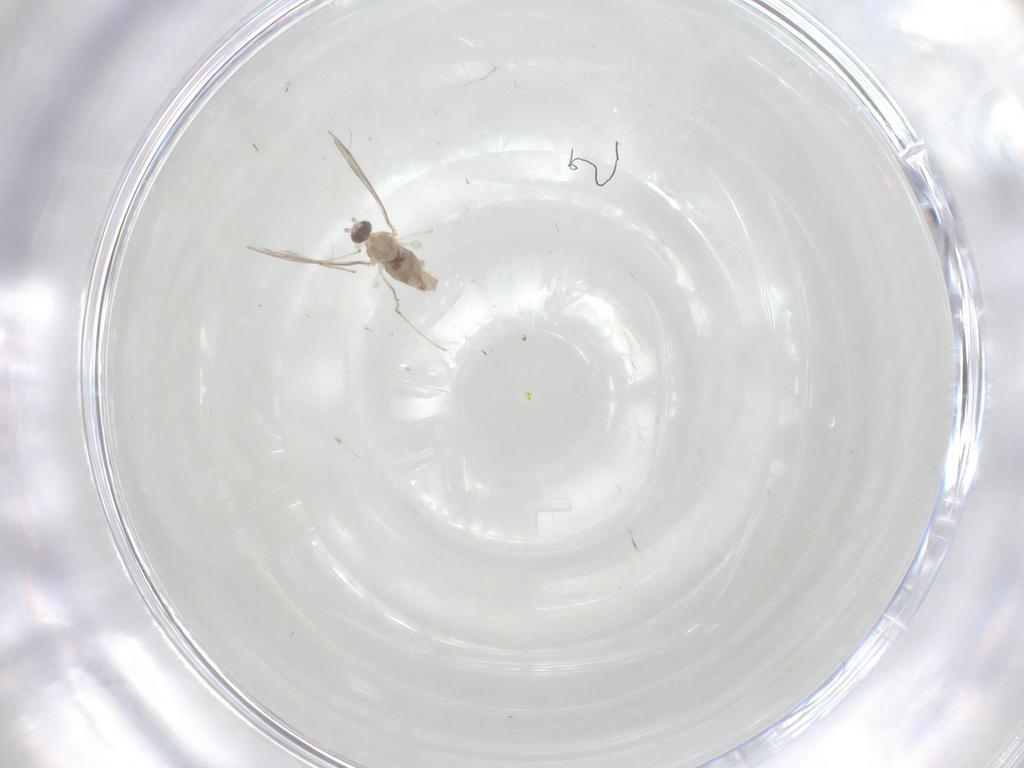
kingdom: Animalia
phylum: Arthropoda
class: Insecta
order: Diptera
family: Cecidomyiidae
